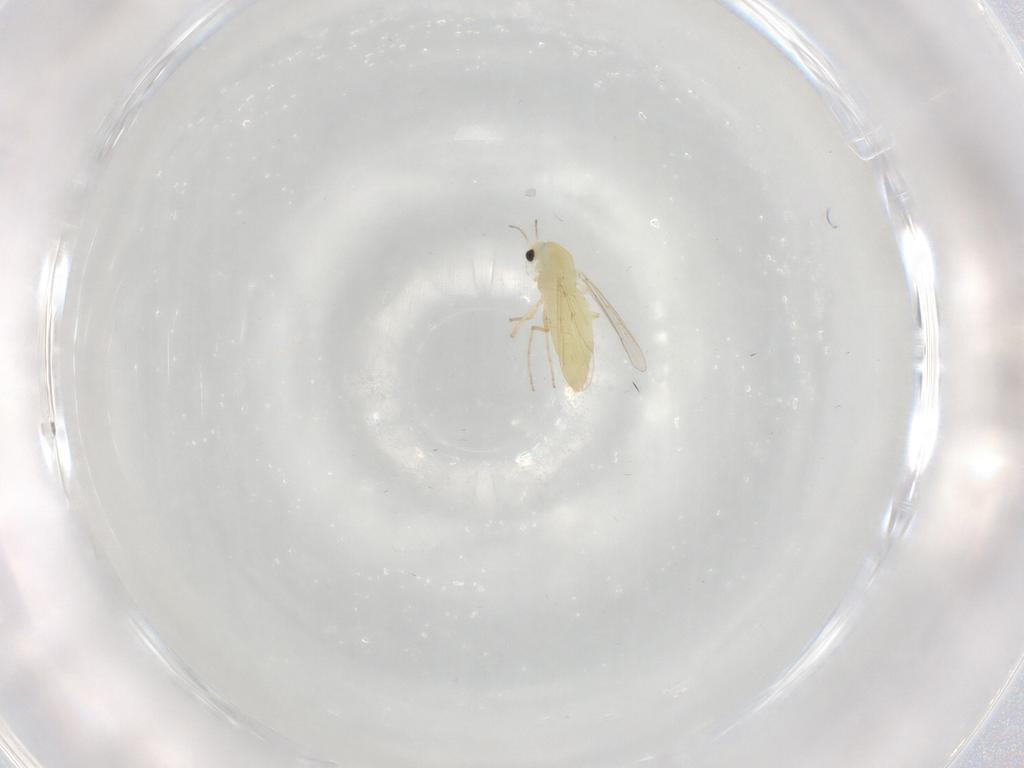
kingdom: Animalia
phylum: Arthropoda
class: Insecta
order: Diptera
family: Chironomidae
